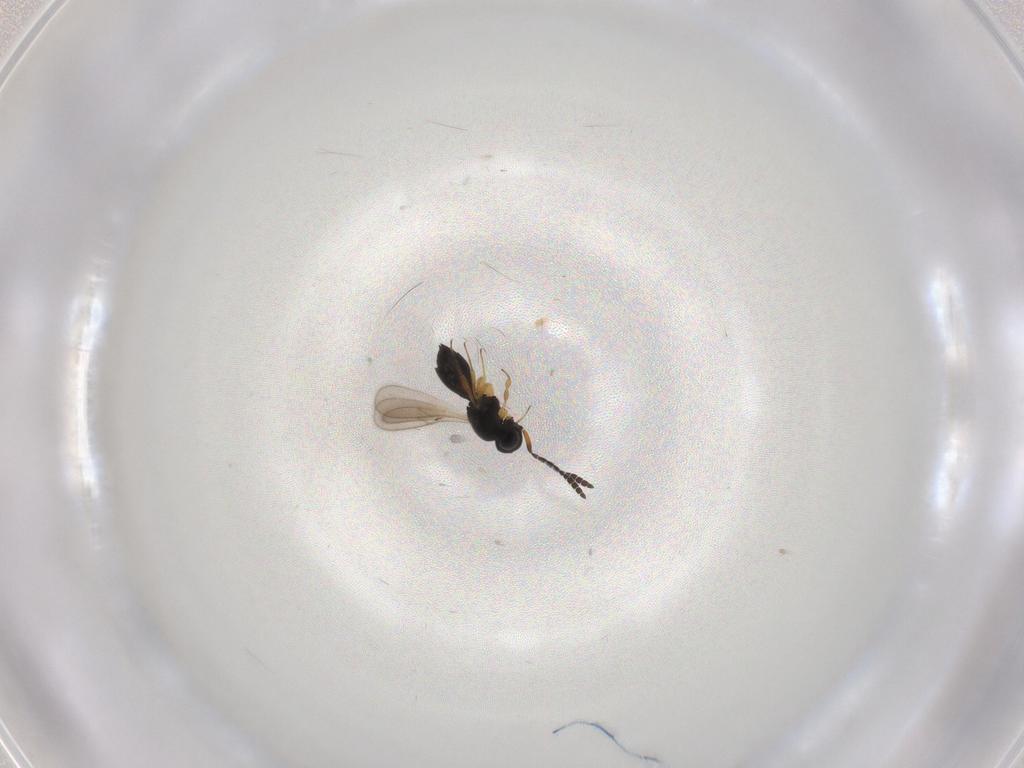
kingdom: Animalia
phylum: Arthropoda
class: Insecta
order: Hymenoptera
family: Scelionidae
